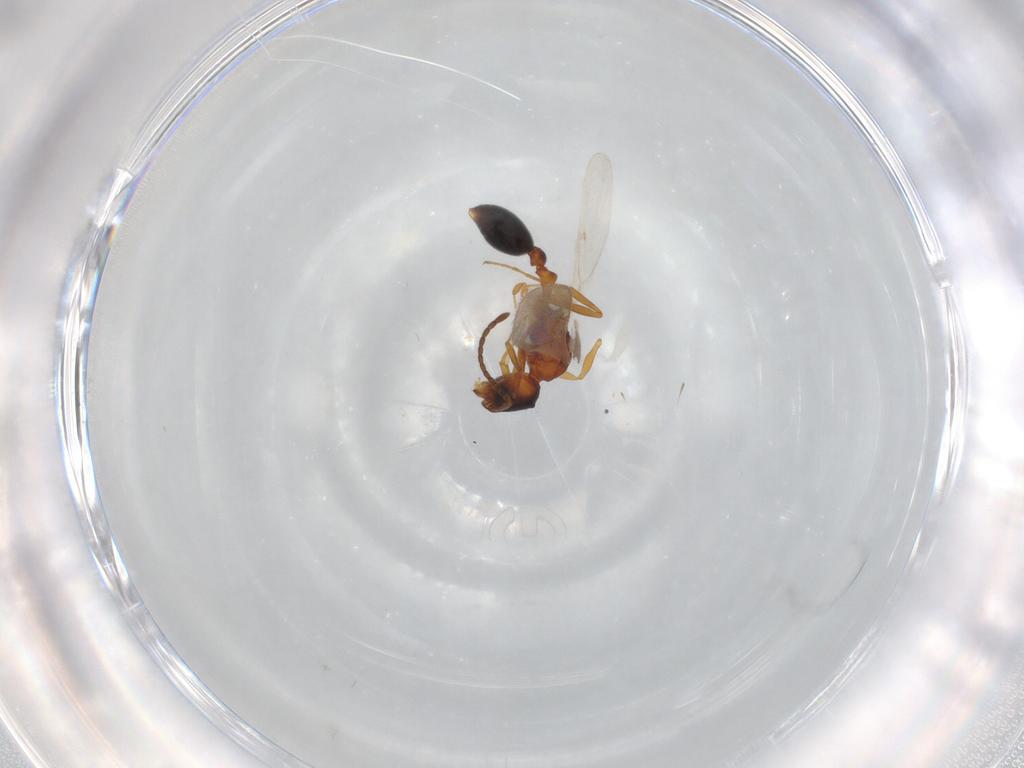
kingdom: Animalia
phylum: Arthropoda
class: Insecta
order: Hymenoptera
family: Formicidae
